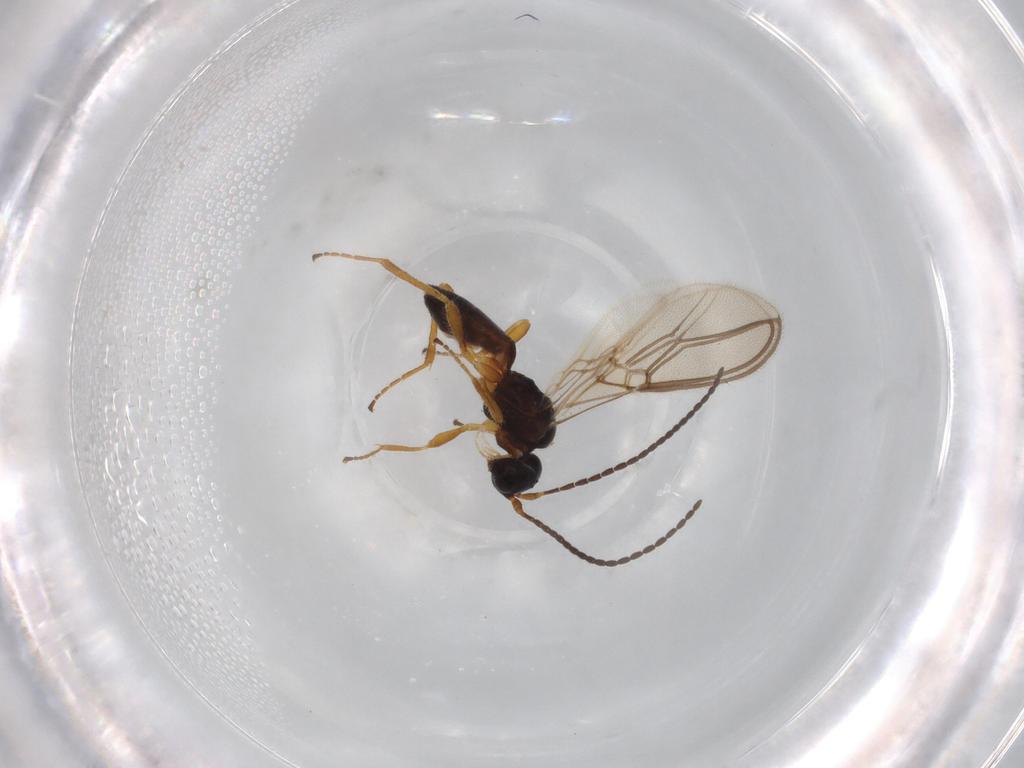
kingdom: Animalia
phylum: Arthropoda
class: Insecta
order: Hymenoptera
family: Braconidae
